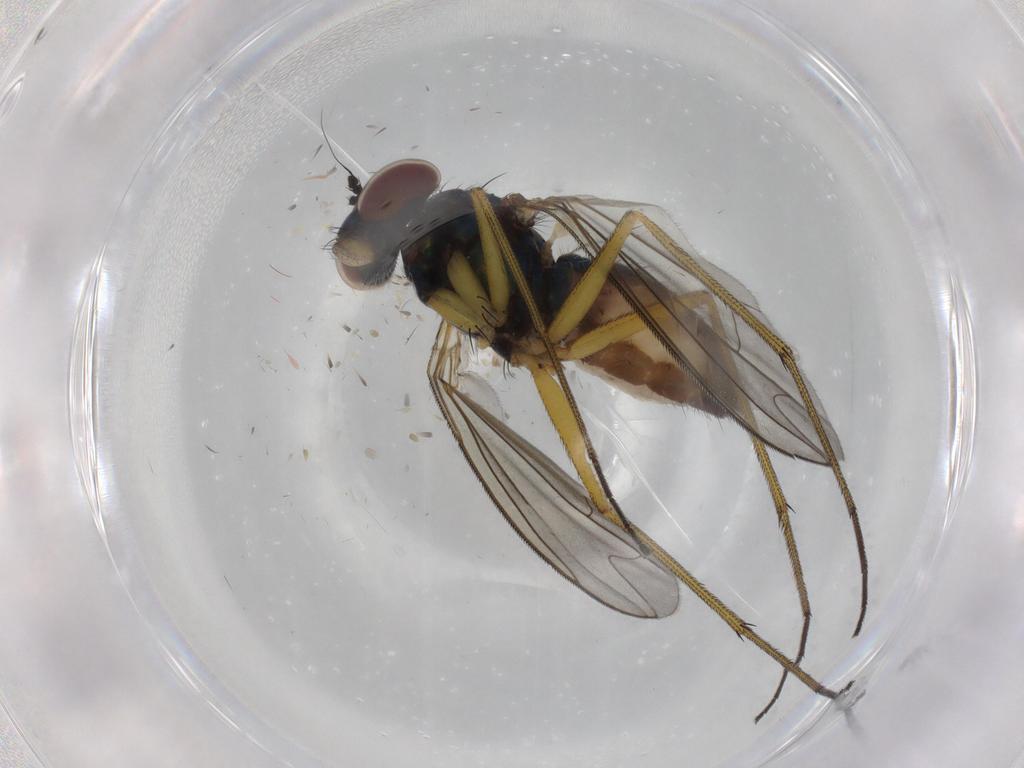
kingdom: Animalia
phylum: Arthropoda
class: Insecta
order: Diptera
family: Dolichopodidae
